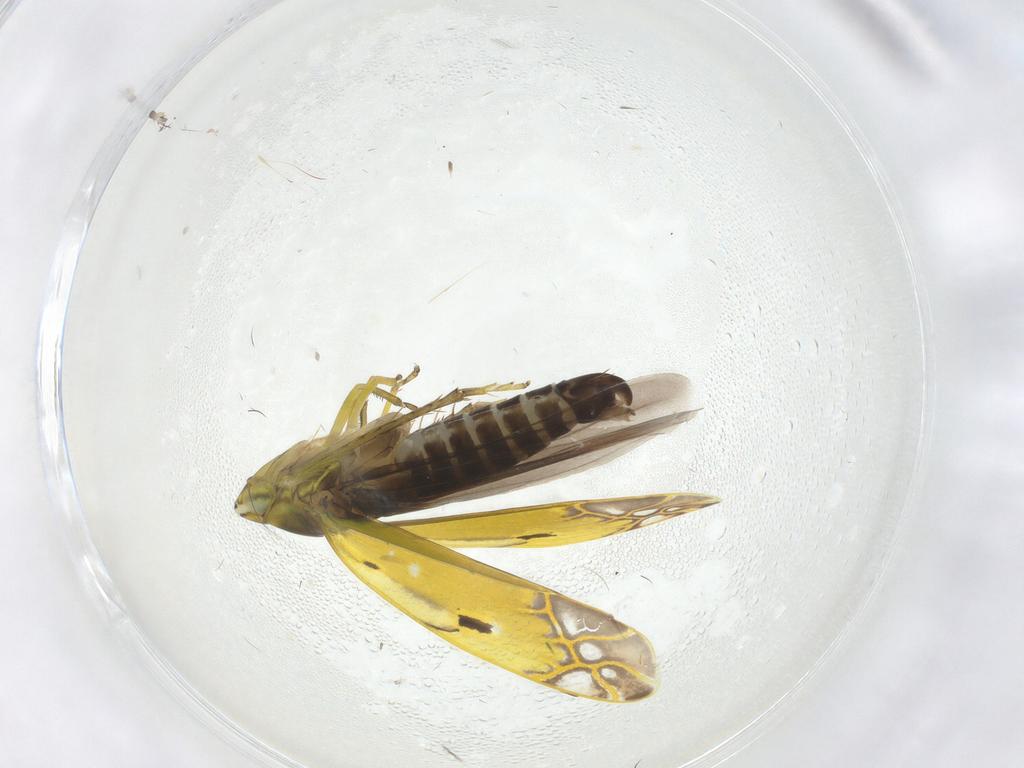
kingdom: Animalia
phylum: Arthropoda
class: Insecta
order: Hemiptera
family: Cicadellidae
